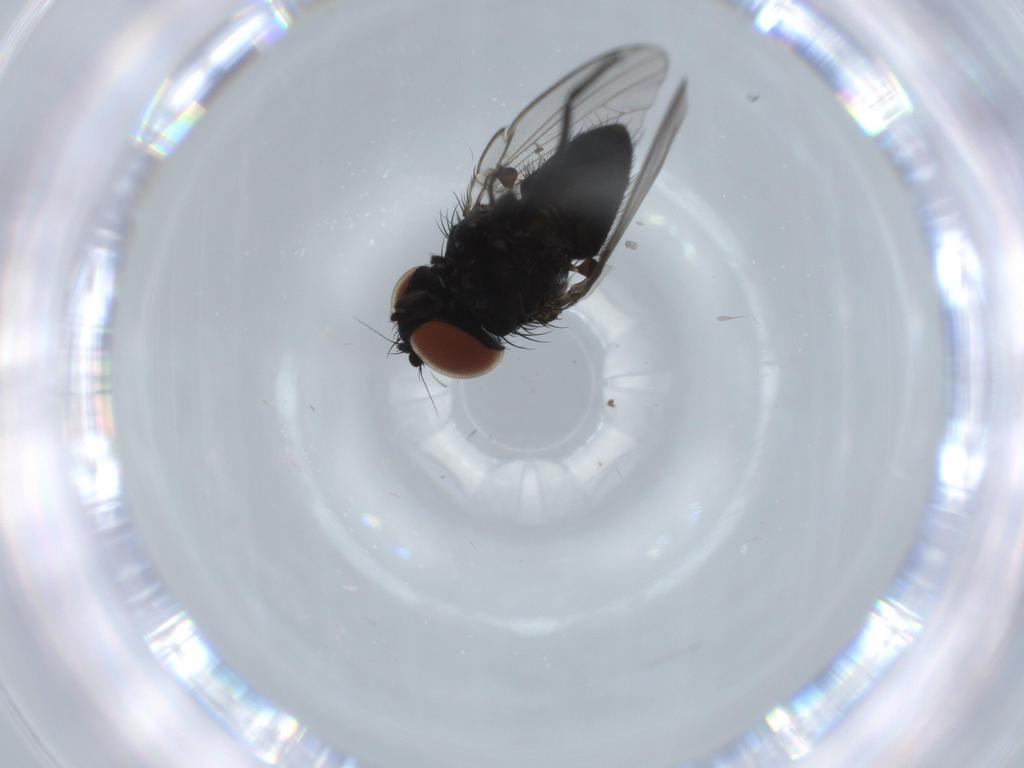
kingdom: Animalia
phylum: Arthropoda
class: Insecta
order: Diptera
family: Milichiidae
